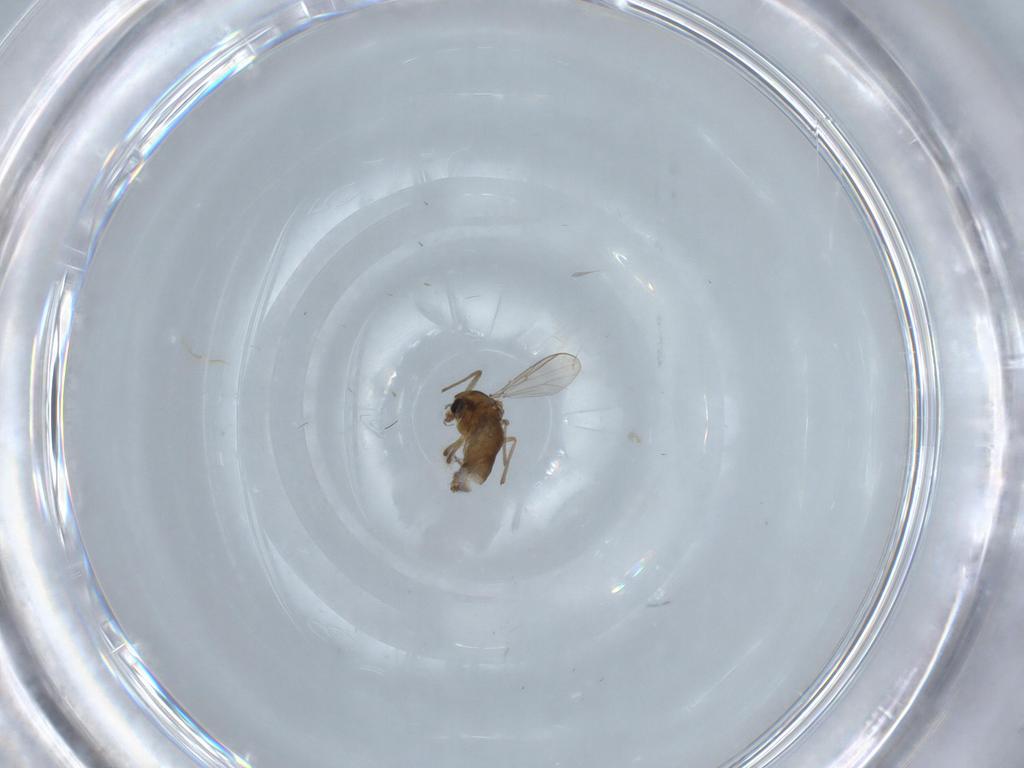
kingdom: Animalia
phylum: Arthropoda
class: Insecta
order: Diptera
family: Chironomidae
